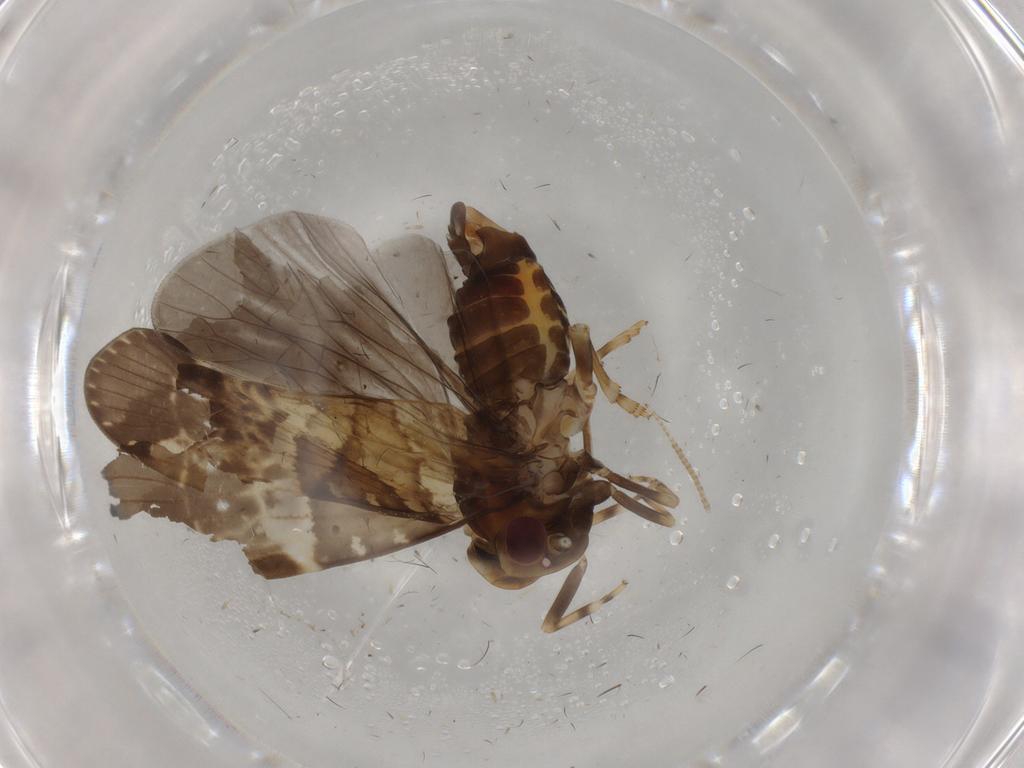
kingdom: Animalia
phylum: Arthropoda
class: Insecta
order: Hemiptera
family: Cixiidae
